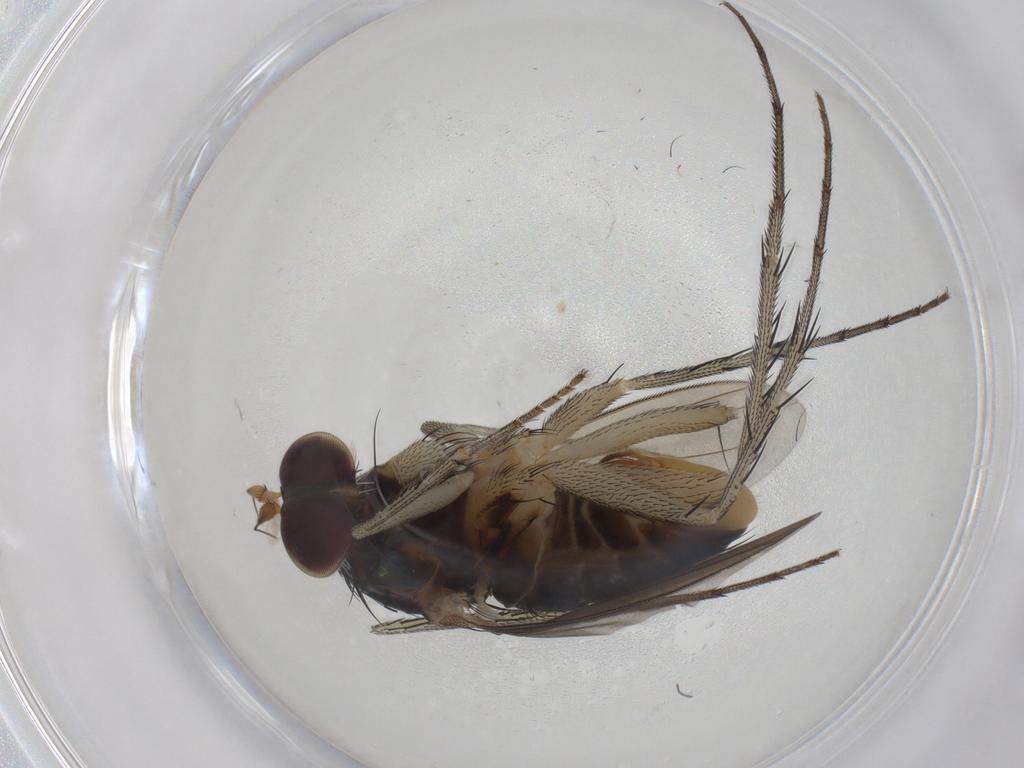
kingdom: Animalia
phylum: Arthropoda
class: Insecta
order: Diptera
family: Dolichopodidae
